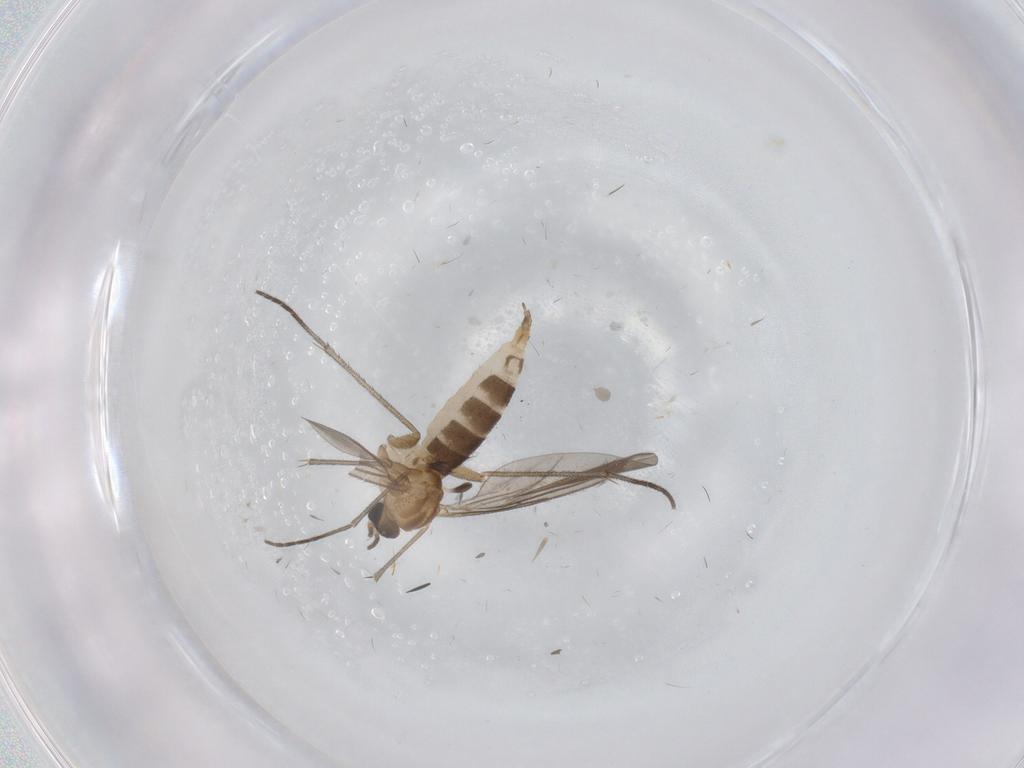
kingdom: Animalia
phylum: Arthropoda
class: Insecta
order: Diptera
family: Sciaridae
